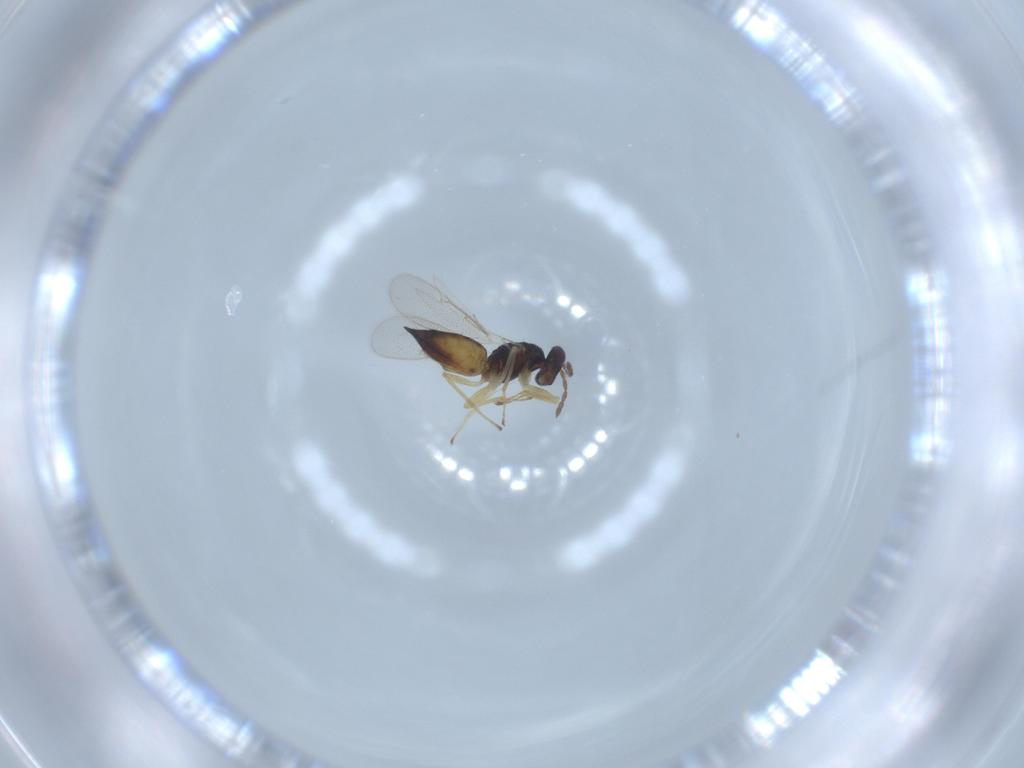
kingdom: Animalia
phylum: Arthropoda
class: Insecta
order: Hymenoptera
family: Eulophidae
